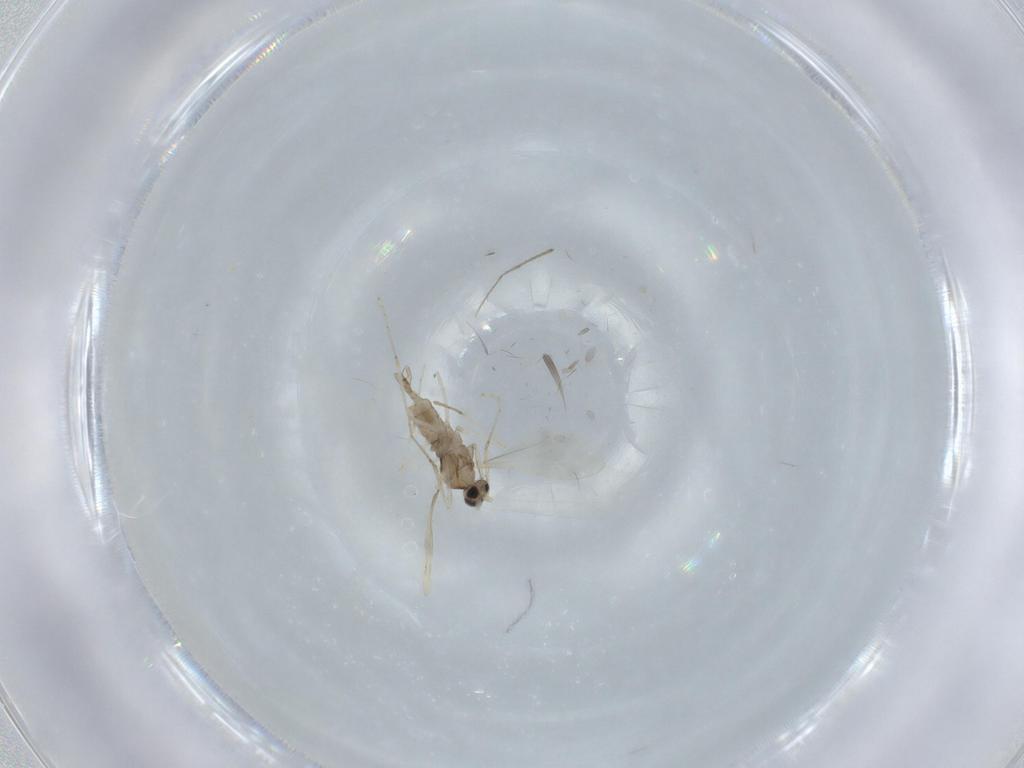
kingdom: Animalia
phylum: Arthropoda
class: Insecta
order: Diptera
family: Cecidomyiidae
